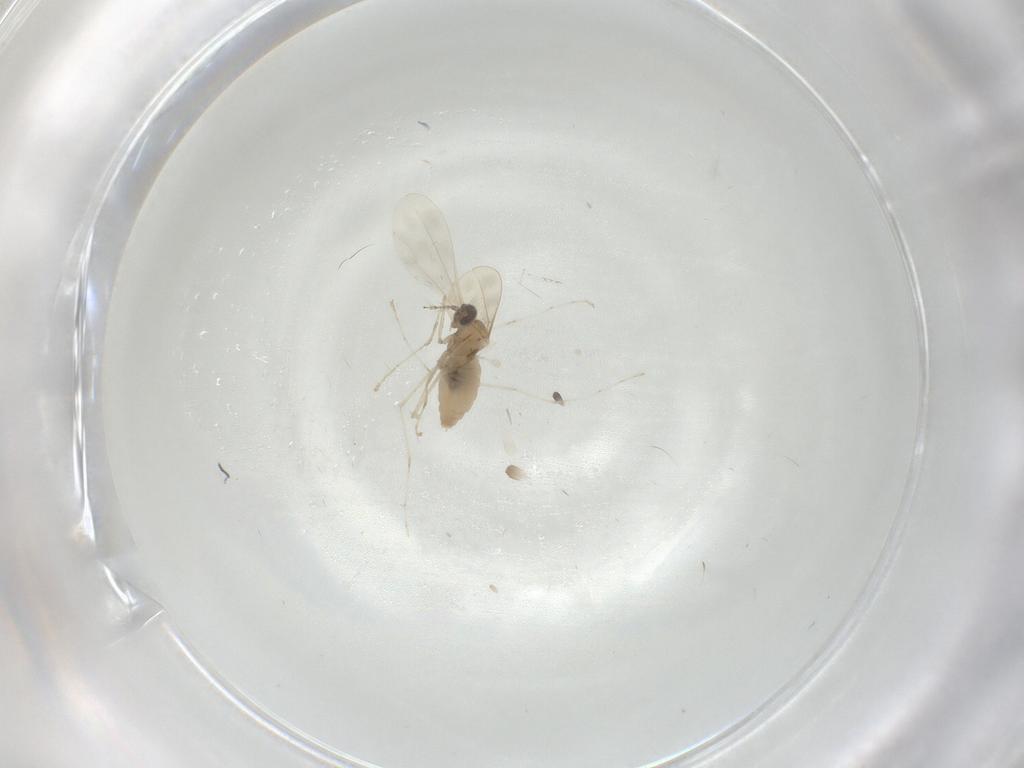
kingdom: Animalia
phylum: Arthropoda
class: Insecta
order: Diptera
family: Cecidomyiidae
